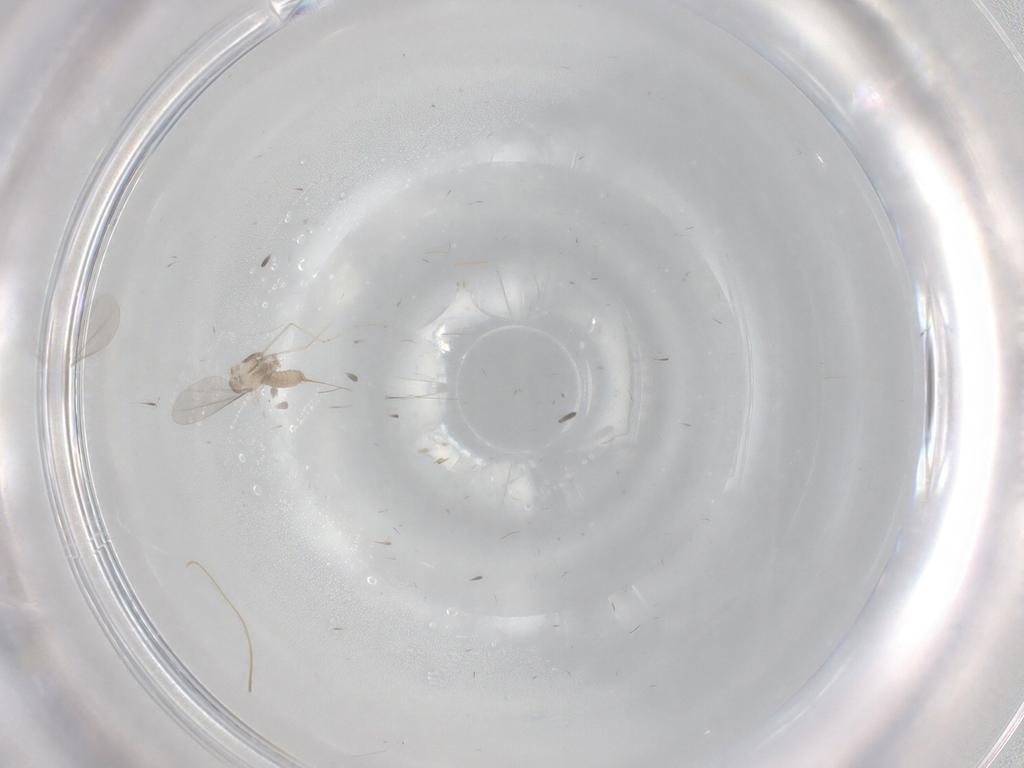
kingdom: Animalia
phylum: Arthropoda
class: Insecta
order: Diptera
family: Cecidomyiidae
